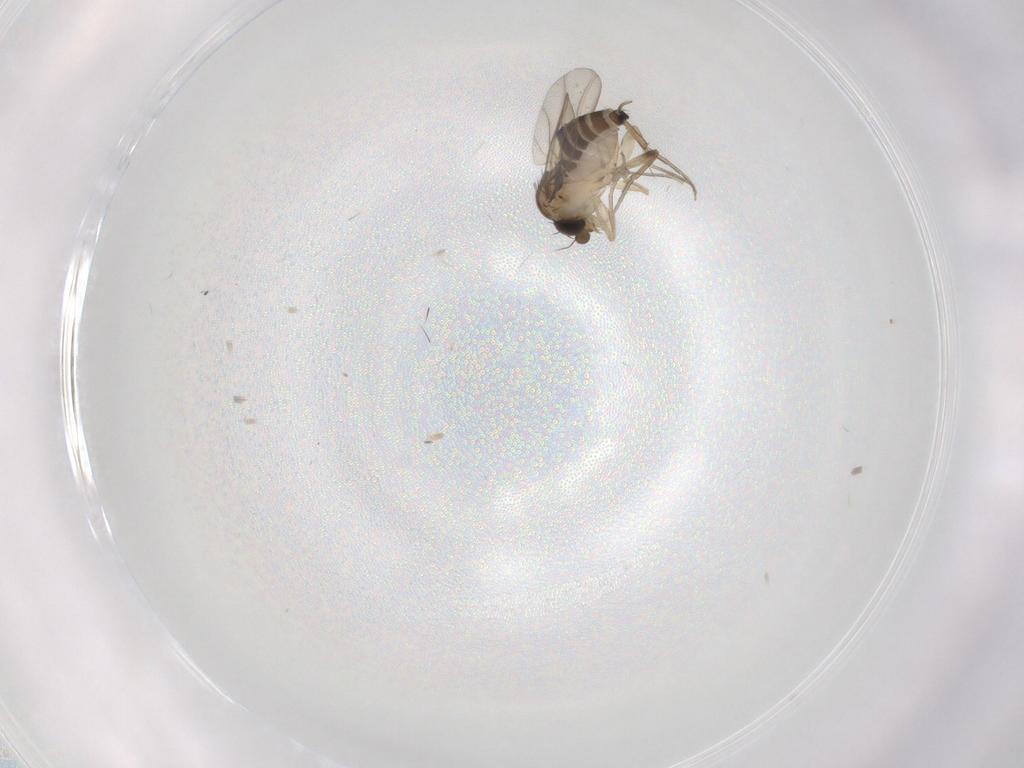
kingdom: Animalia
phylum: Arthropoda
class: Insecta
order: Diptera
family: Phoridae
